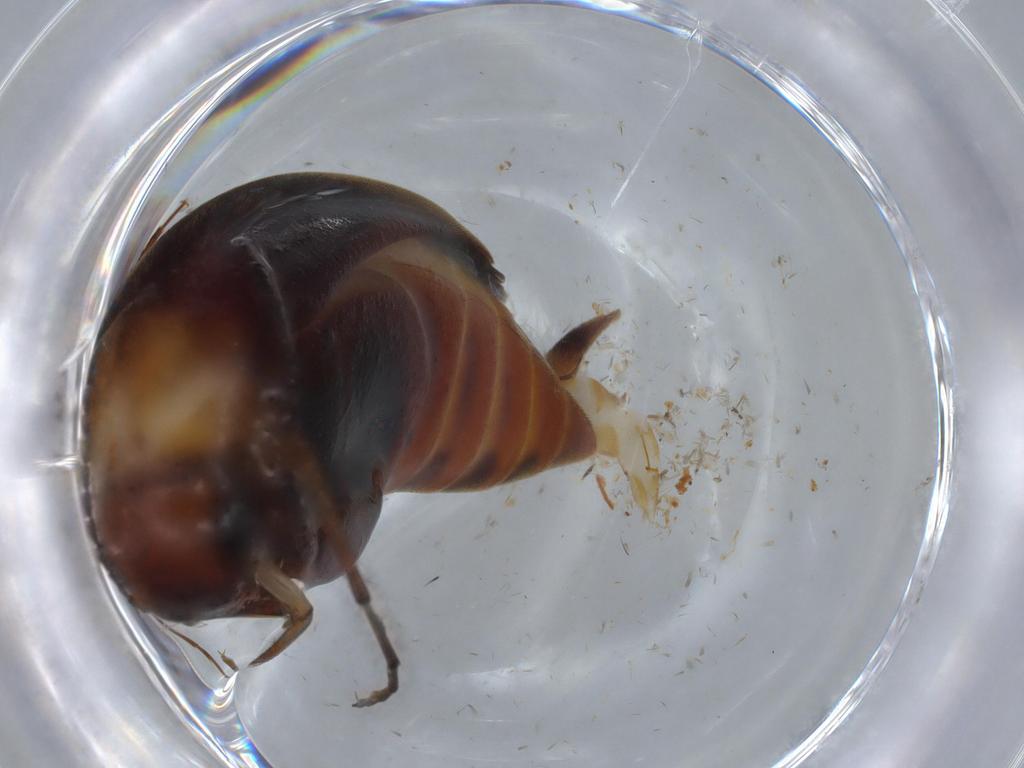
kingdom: Animalia
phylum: Arthropoda
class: Insecta
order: Coleoptera
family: Mordellidae
